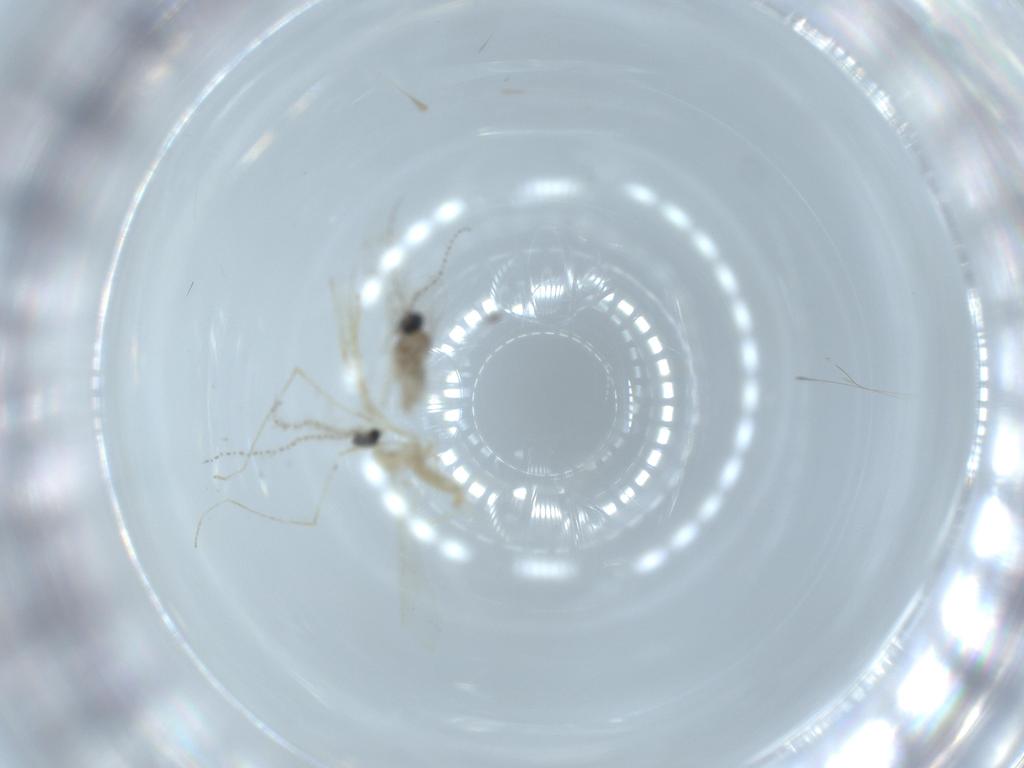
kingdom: Animalia
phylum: Arthropoda
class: Insecta
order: Diptera
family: Cecidomyiidae
